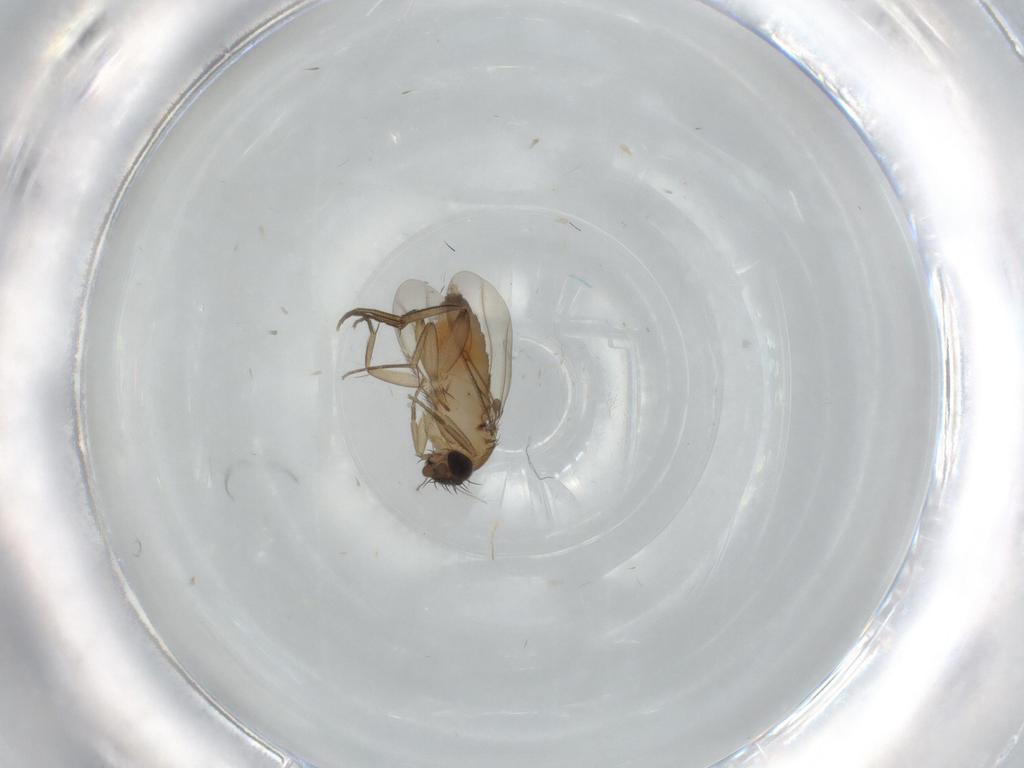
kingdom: Animalia
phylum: Arthropoda
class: Insecta
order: Diptera
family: Phoridae
